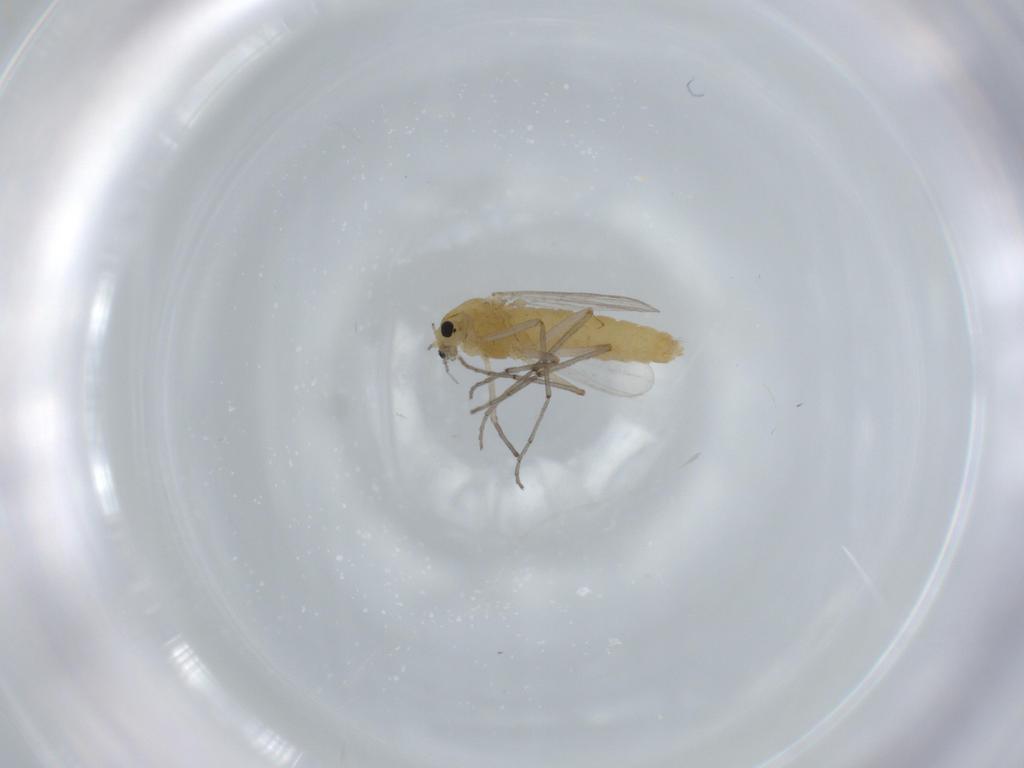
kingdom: Animalia
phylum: Arthropoda
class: Insecta
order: Diptera
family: Chironomidae
